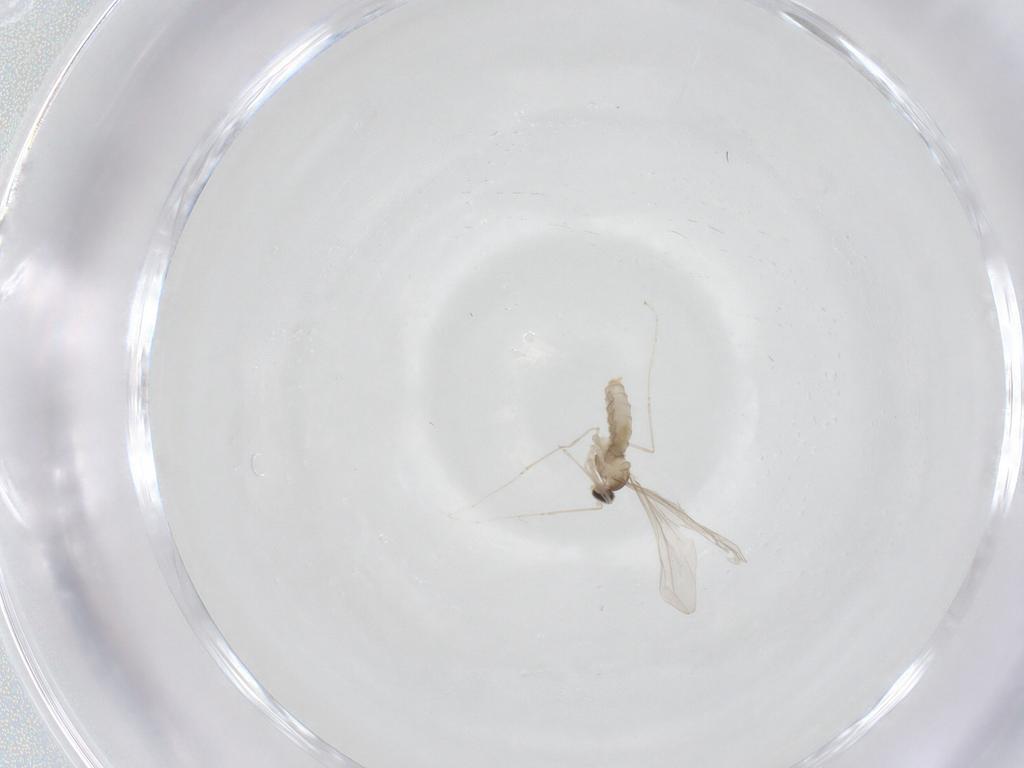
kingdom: Animalia
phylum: Arthropoda
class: Insecta
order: Diptera
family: Cecidomyiidae
